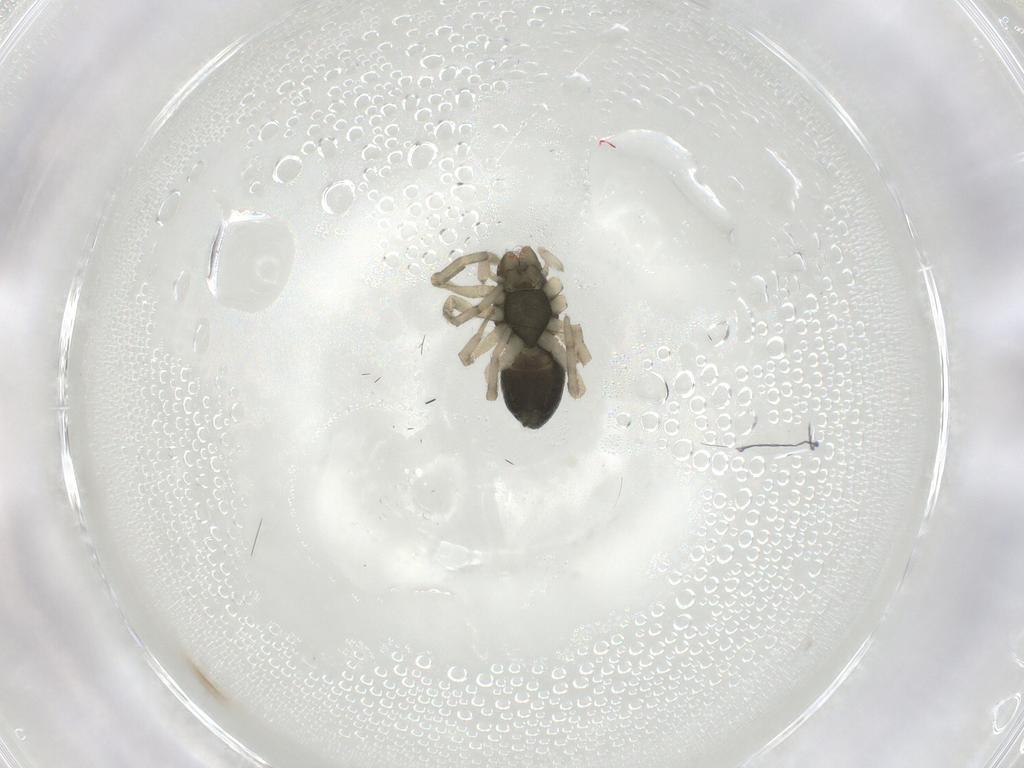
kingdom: Animalia
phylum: Arthropoda
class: Arachnida
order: Araneae
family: Trachelidae
